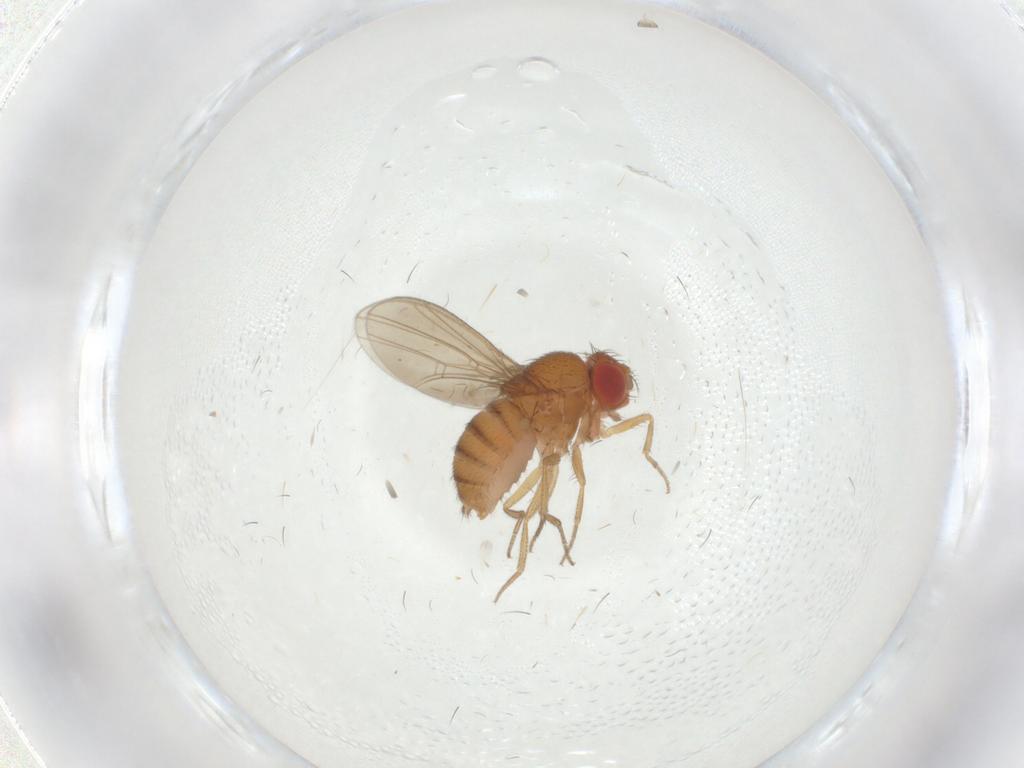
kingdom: Animalia
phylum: Arthropoda
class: Insecta
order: Diptera
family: Drosophilidae
